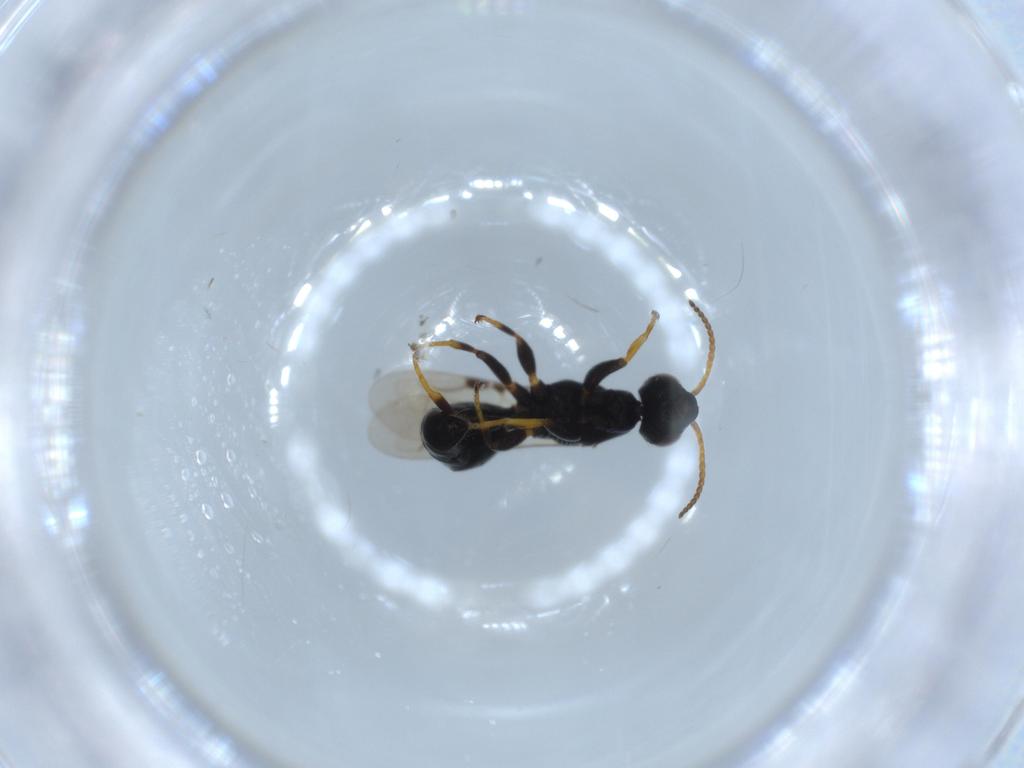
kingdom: Animalia
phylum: Arthropoda
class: Insecta
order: Hymenoptera
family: Bethylidae
